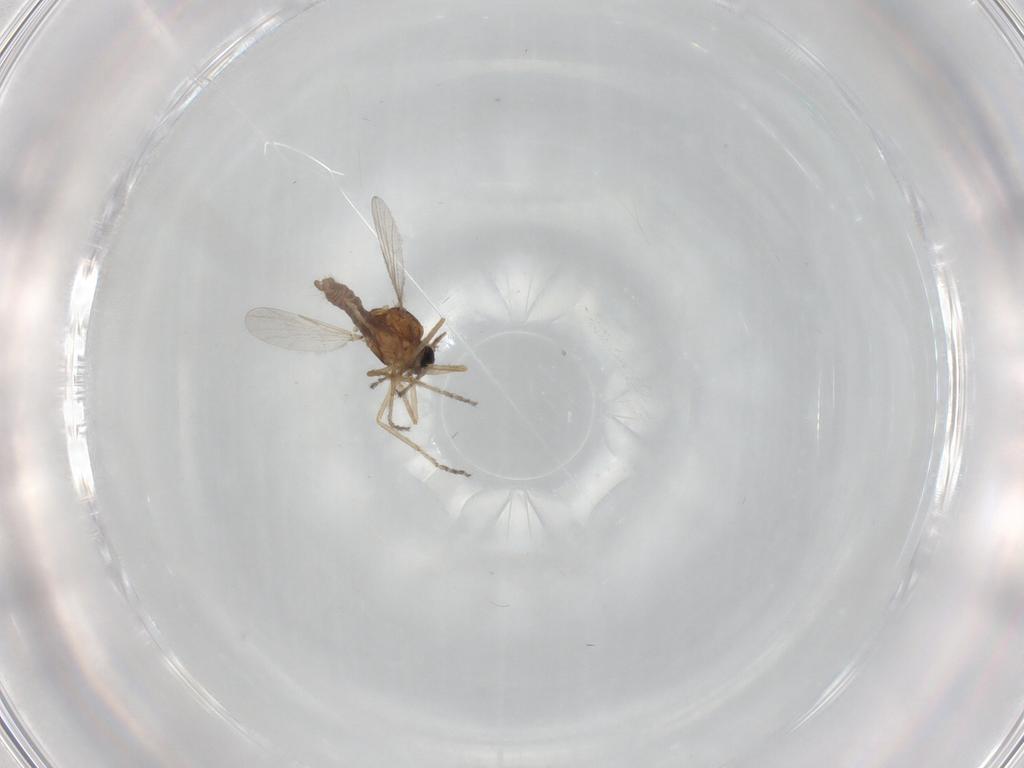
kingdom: Animalia
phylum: Arthropoda
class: Insecta
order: Diptera
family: Ceratopogonidae
